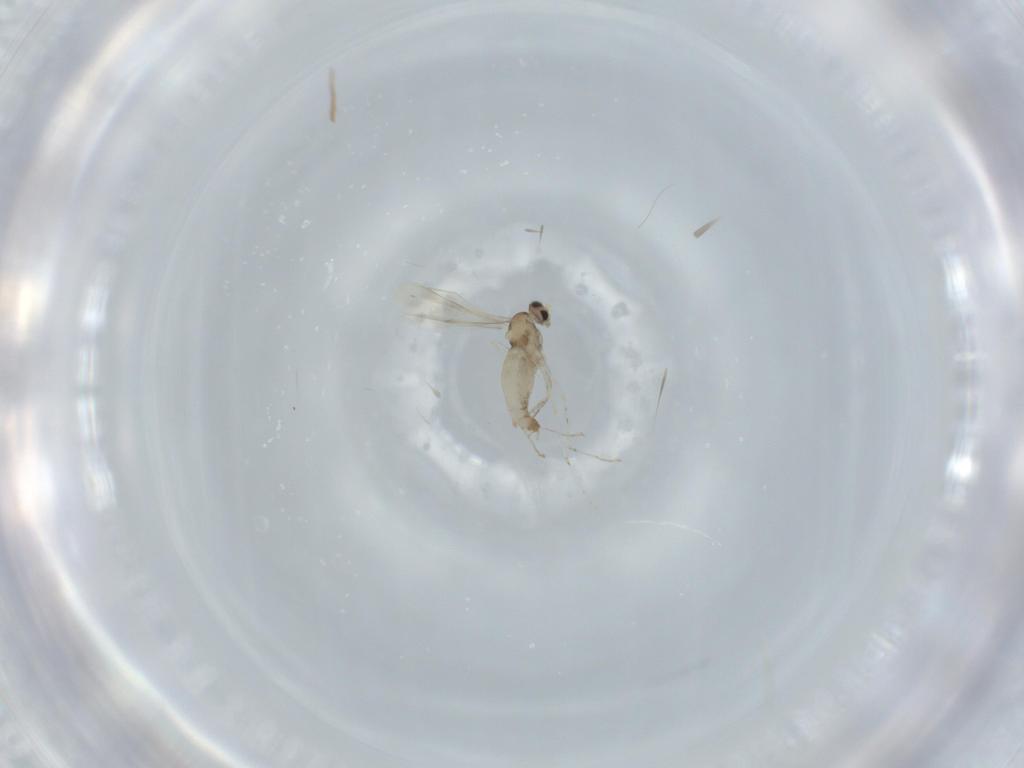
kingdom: Animalia
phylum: Arthropoda
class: Insecta
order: Diptera
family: Cecidomyiidae
